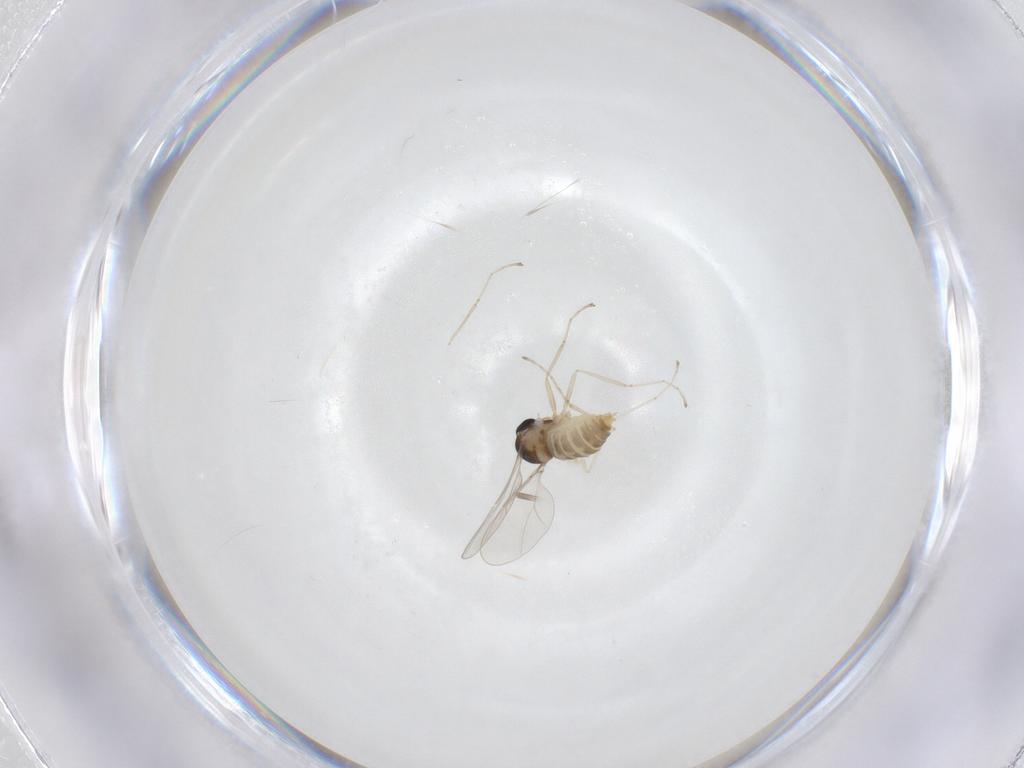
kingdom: Animalia
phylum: Arthropoda
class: Insecta
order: Diptera
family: Cecidomyiidae
